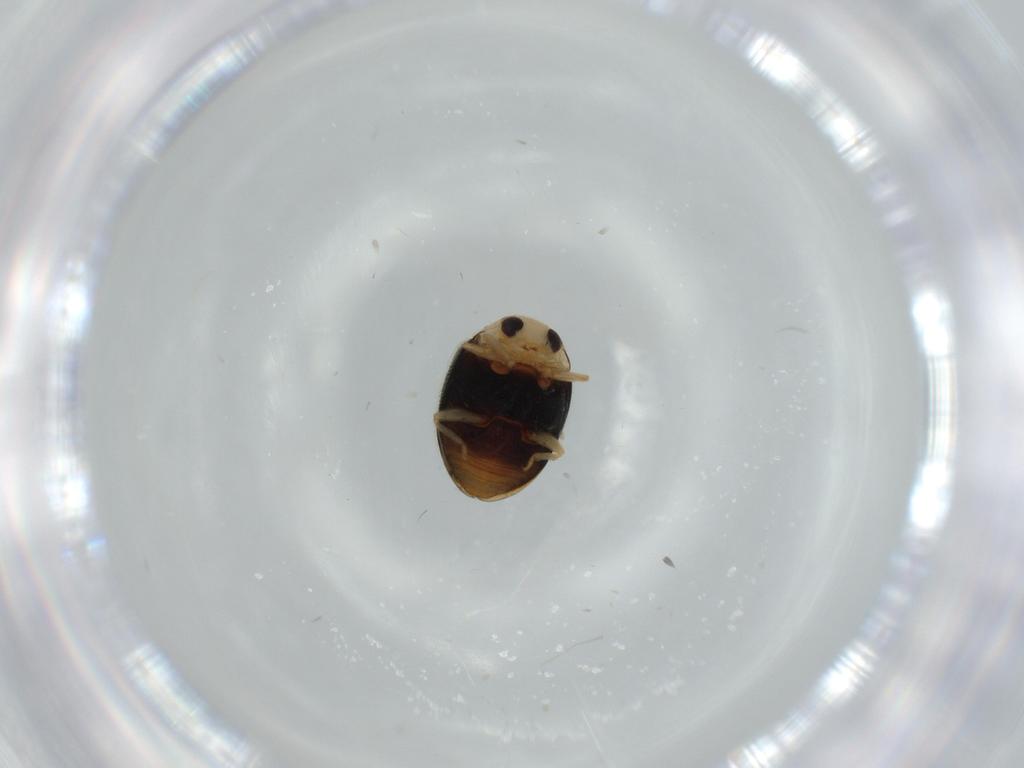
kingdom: Animalia
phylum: Arthropoda
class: Insecta
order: Coleoptera
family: Coccinellidae
